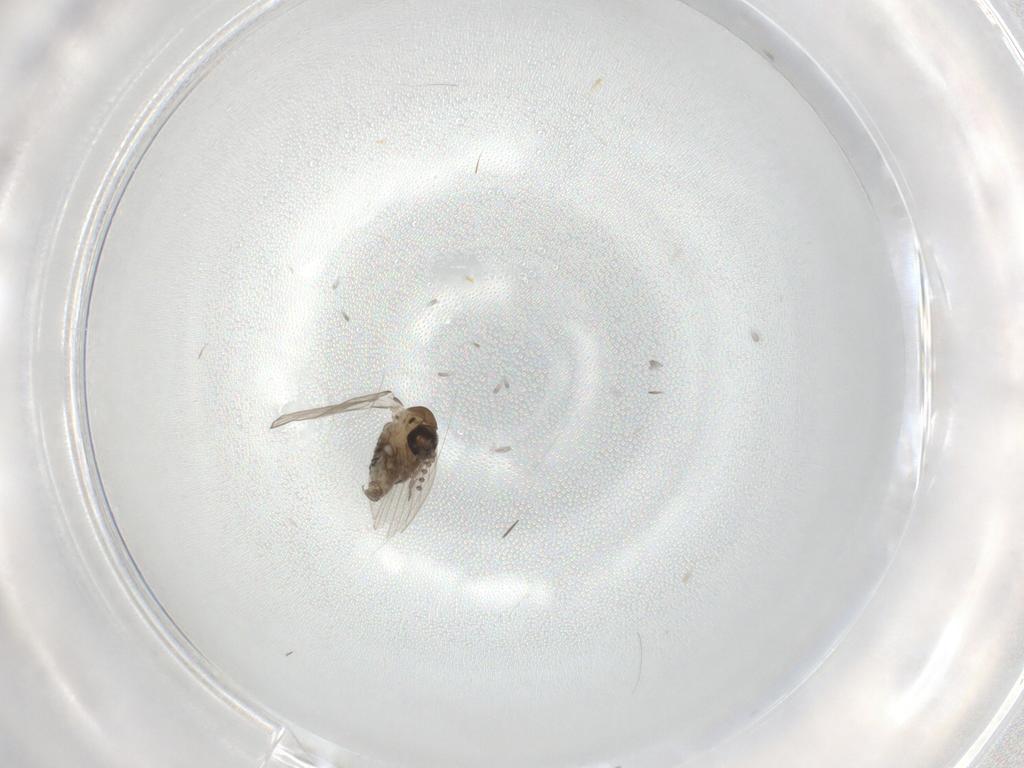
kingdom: Animalia
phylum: Arthropoda
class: Insecta
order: Diptera
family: Psychodidae
